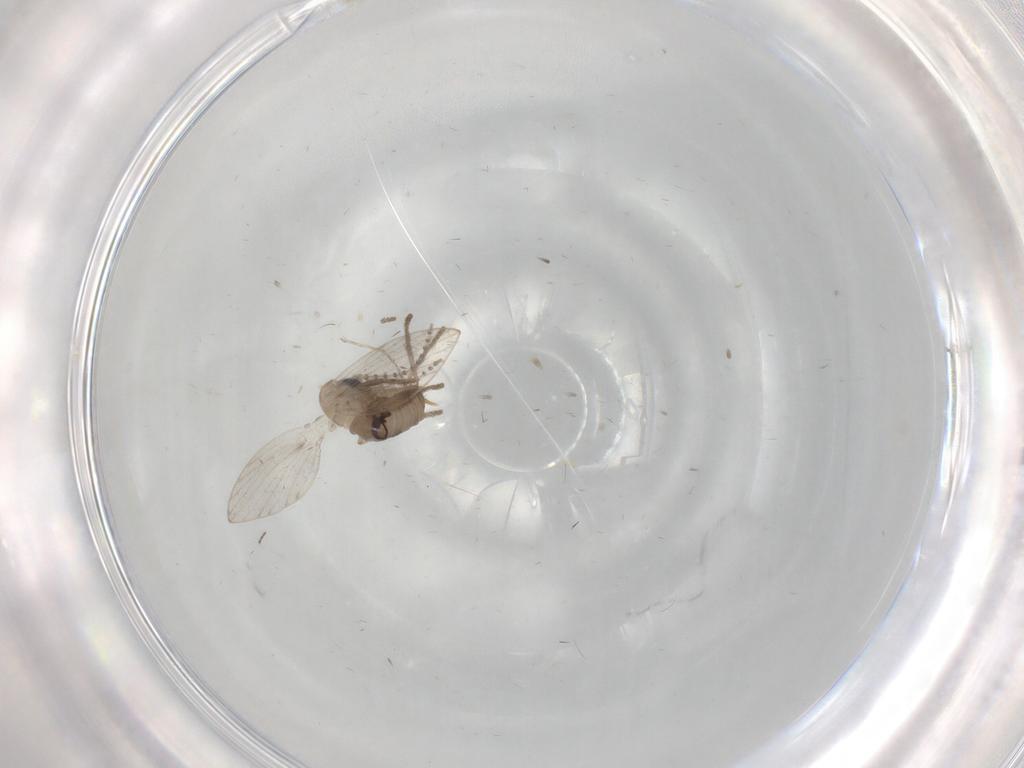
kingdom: Animalia
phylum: Arthropoda
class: Insecta
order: Diptera
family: Psychodidae
